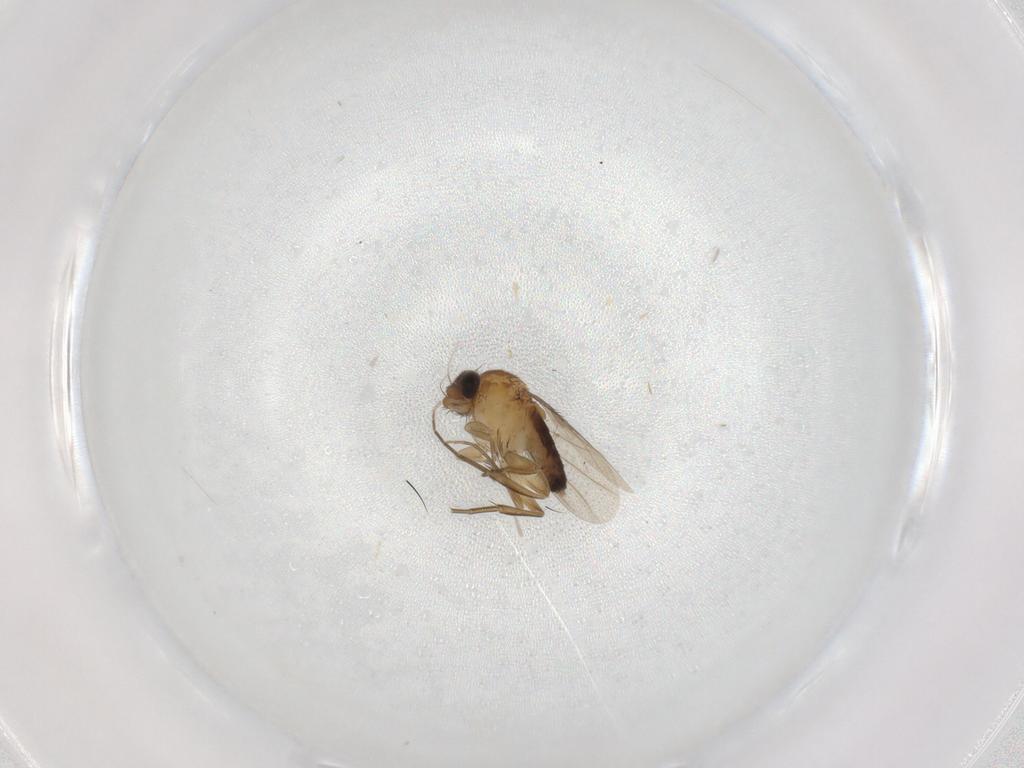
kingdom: Animalia
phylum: Arthropoda
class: Insecta
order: Diptera
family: Phoridae
